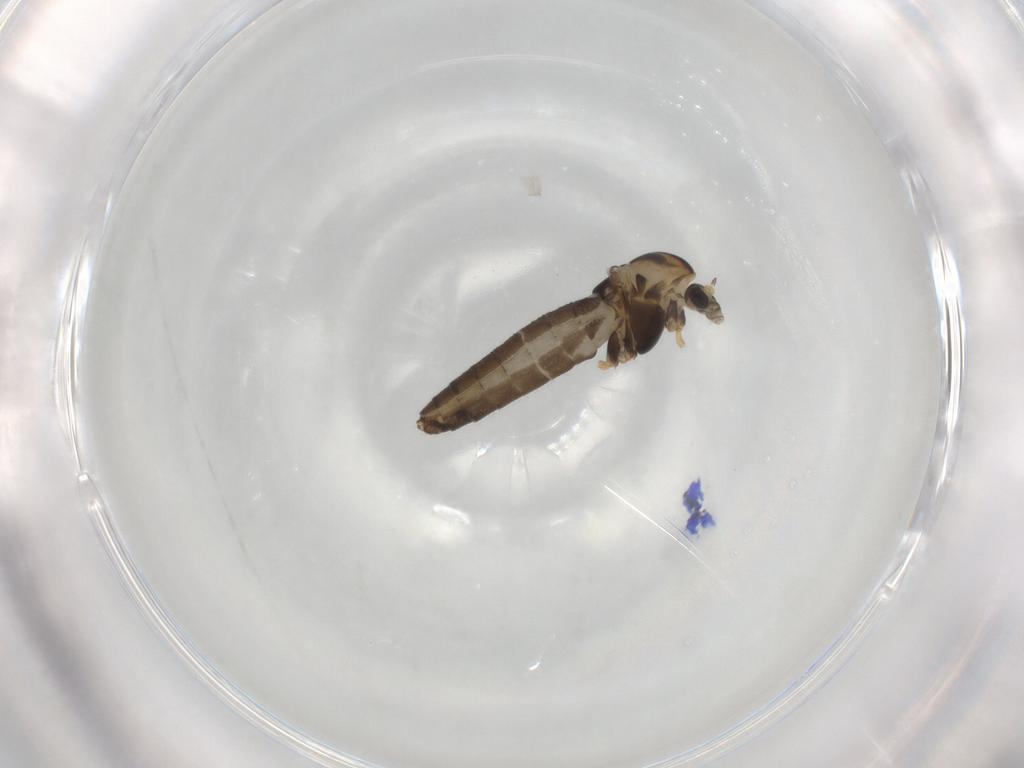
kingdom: Animalia
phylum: Arthropoda
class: Insecta
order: Diptera
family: Chironomidae
